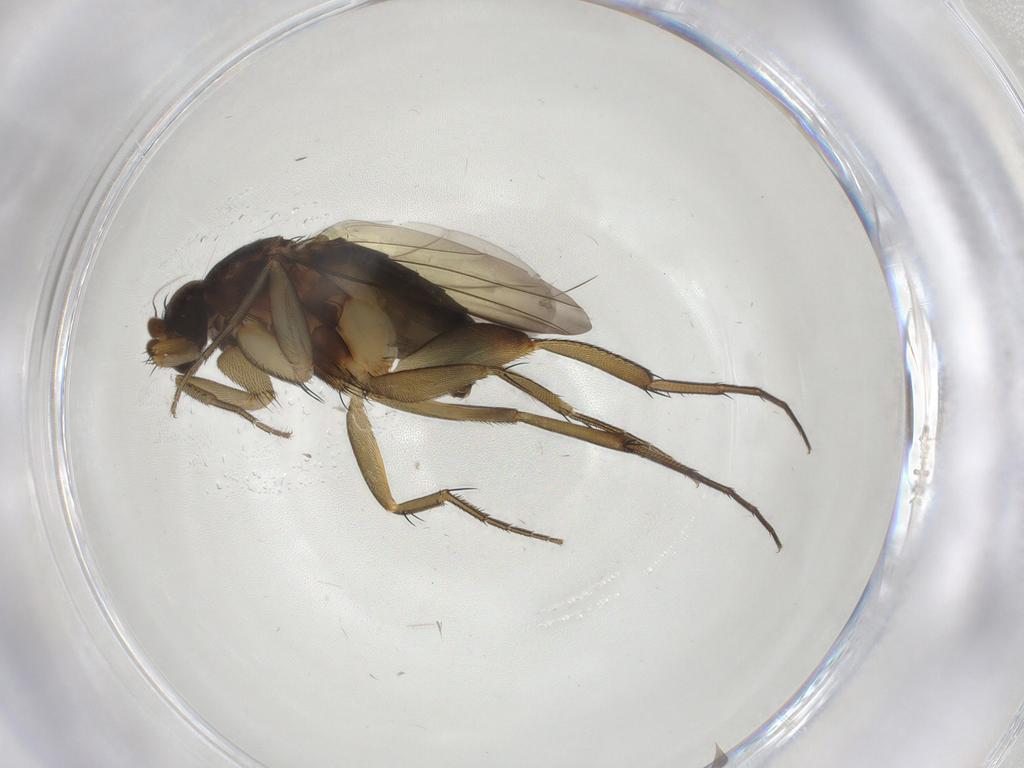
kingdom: Animalia
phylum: Arthropoda
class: Insecta
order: Diptera
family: Phoridae
